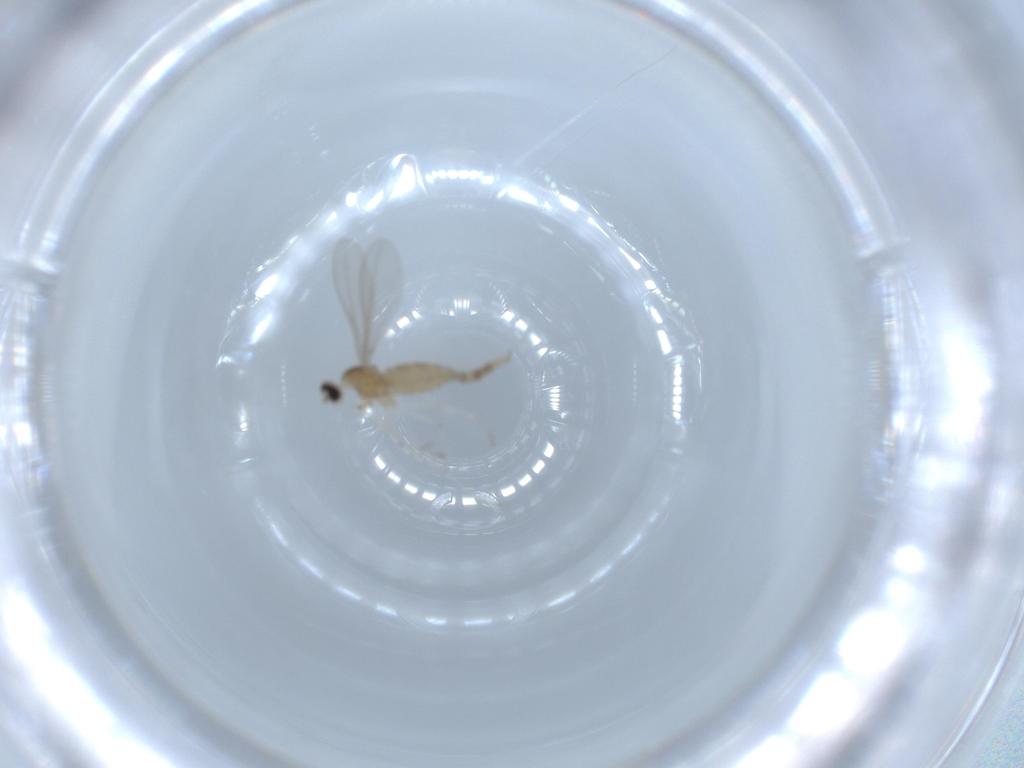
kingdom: Animalia
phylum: Arthropoda
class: Insecta
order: Diptera
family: Cecidomyiidae
